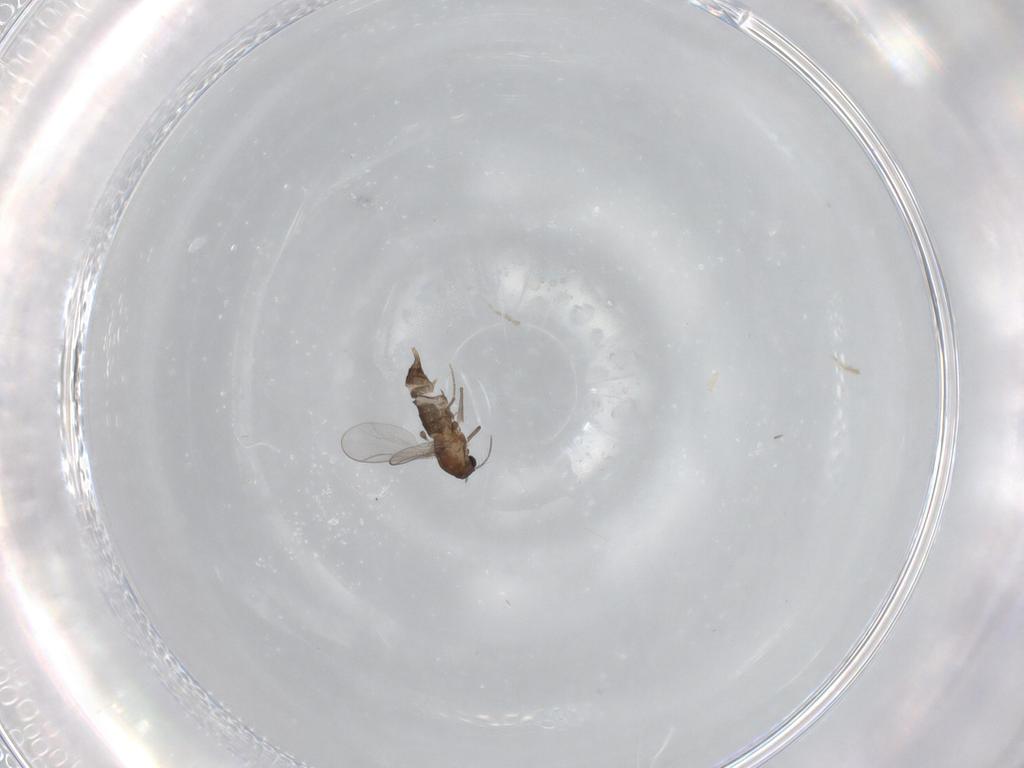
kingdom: Animalia
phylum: Arthropoda
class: Insecta
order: Diptera
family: Chironomidae
